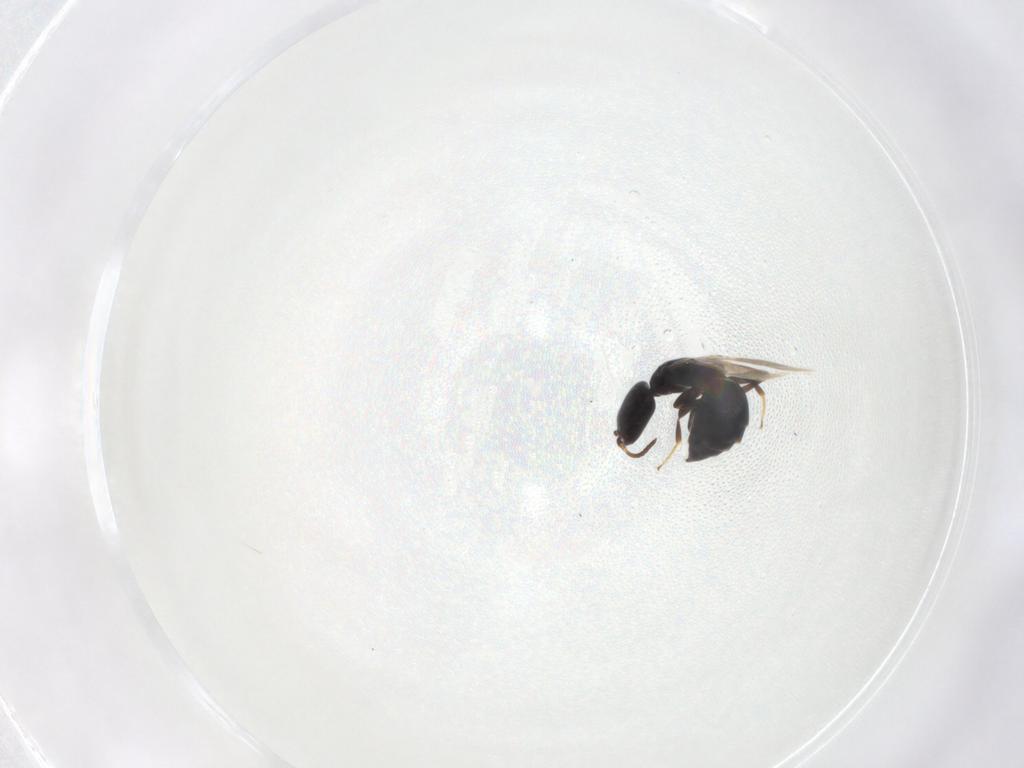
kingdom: Animalia
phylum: Arthropoda
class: Insecta
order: Hymenoptera
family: Bethylidae
